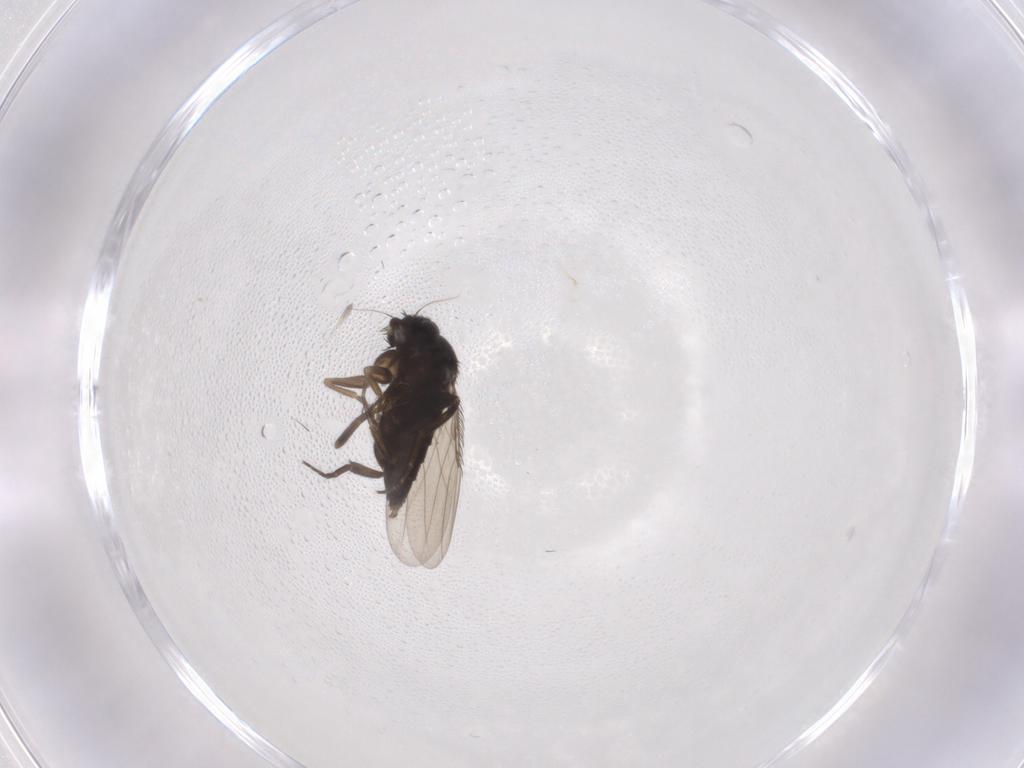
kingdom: Animalia
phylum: Arthropoda
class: Insecta
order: Diptera
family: Phoridae
